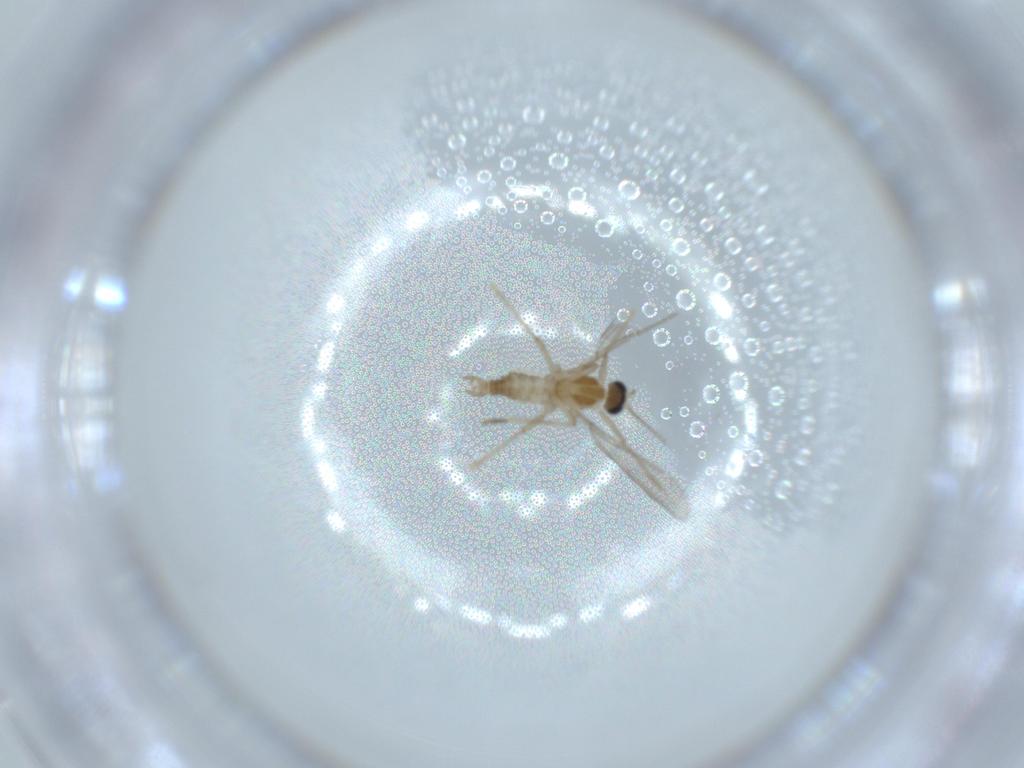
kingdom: Animalia
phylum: Arthropoda
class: Insecta
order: Diptera
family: Cecidomyiidae
